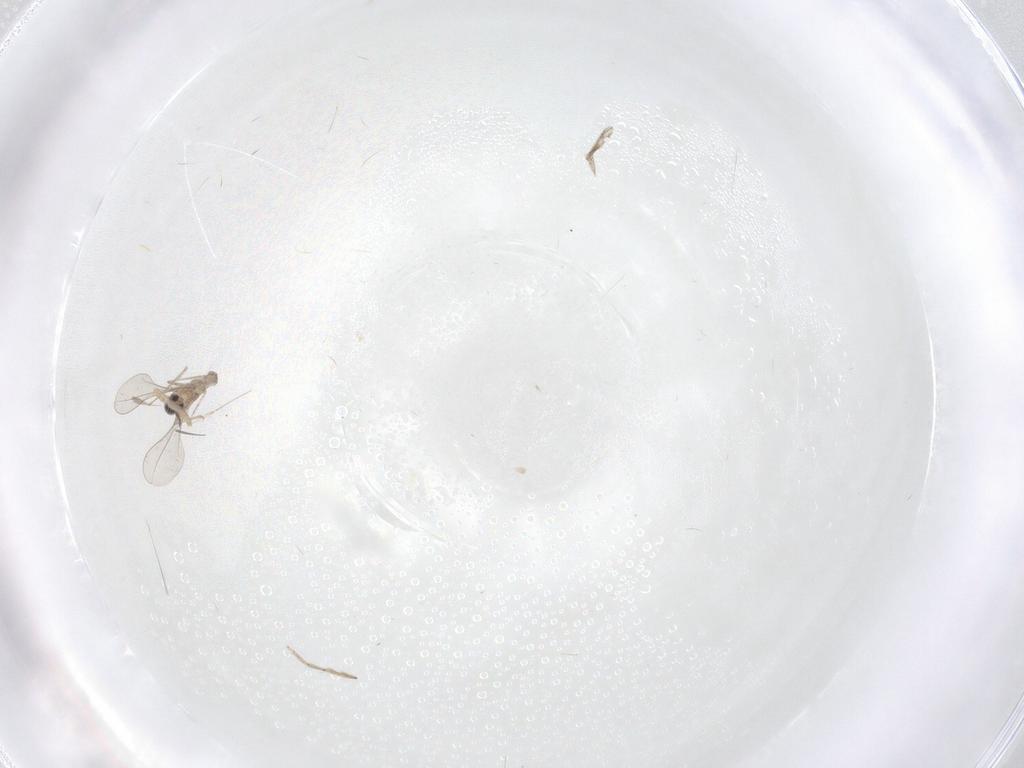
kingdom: Animalia
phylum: Arthropoda
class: Insecta
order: Diptera
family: Cecidomyiidae
